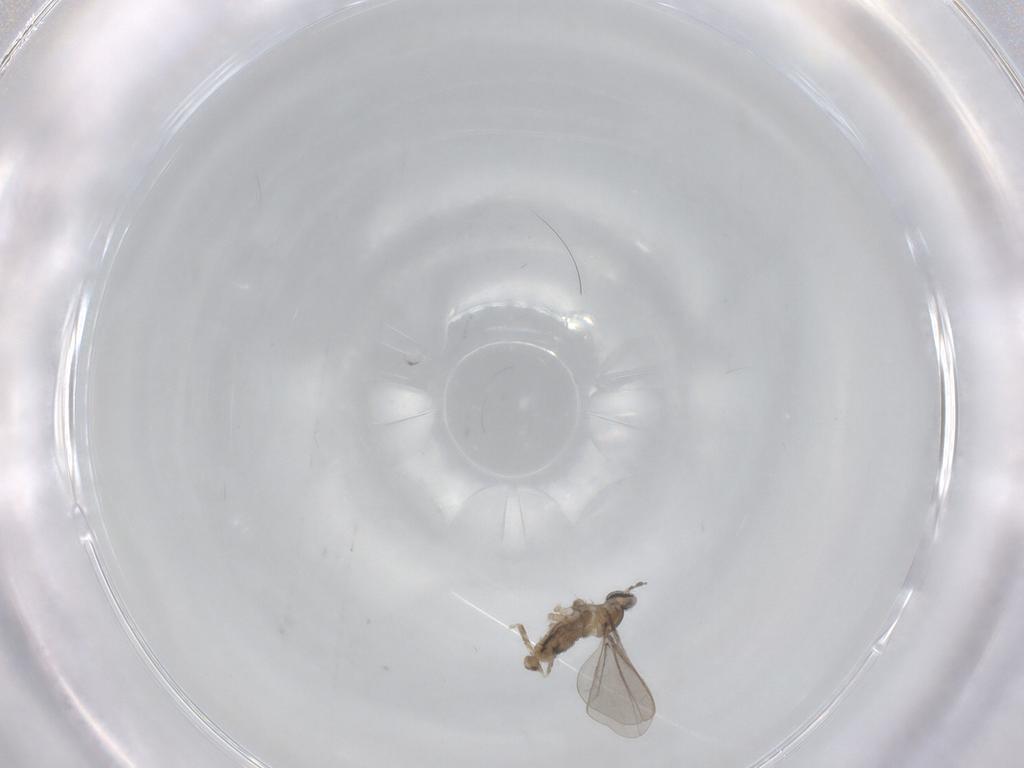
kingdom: Animalia
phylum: Arthropoda
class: Insecta
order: Diptera
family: Cecidomyiidae
